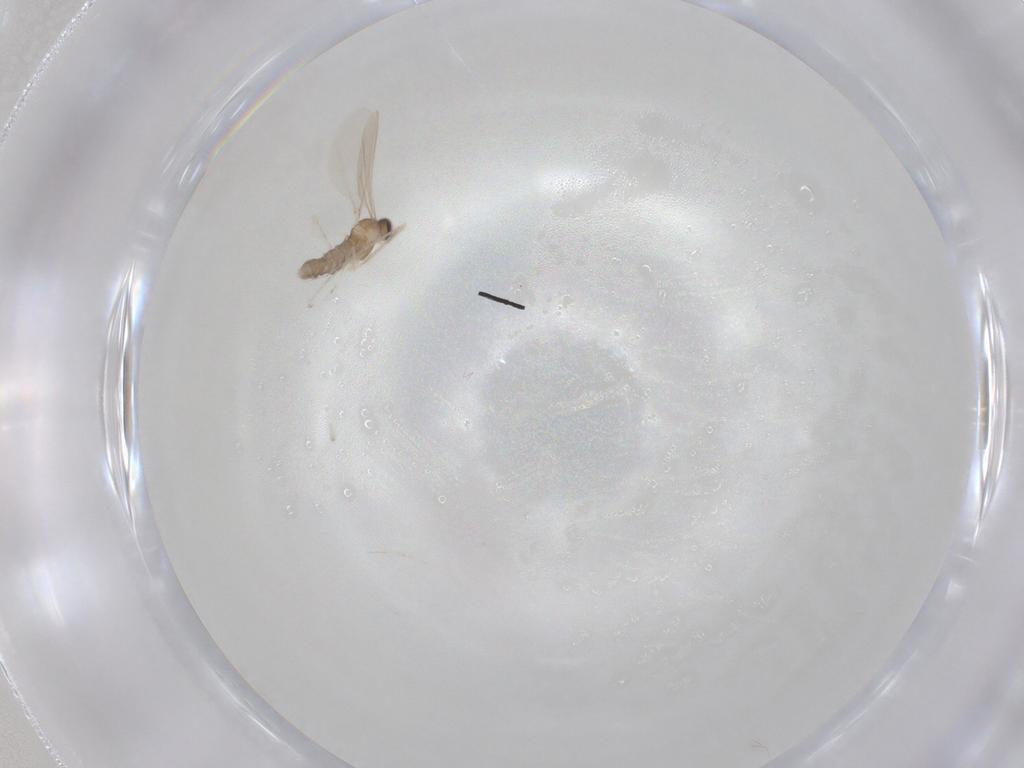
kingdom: Animalia
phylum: Arthropoda
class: Insecta
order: Diptera
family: Cecidomyiidae
